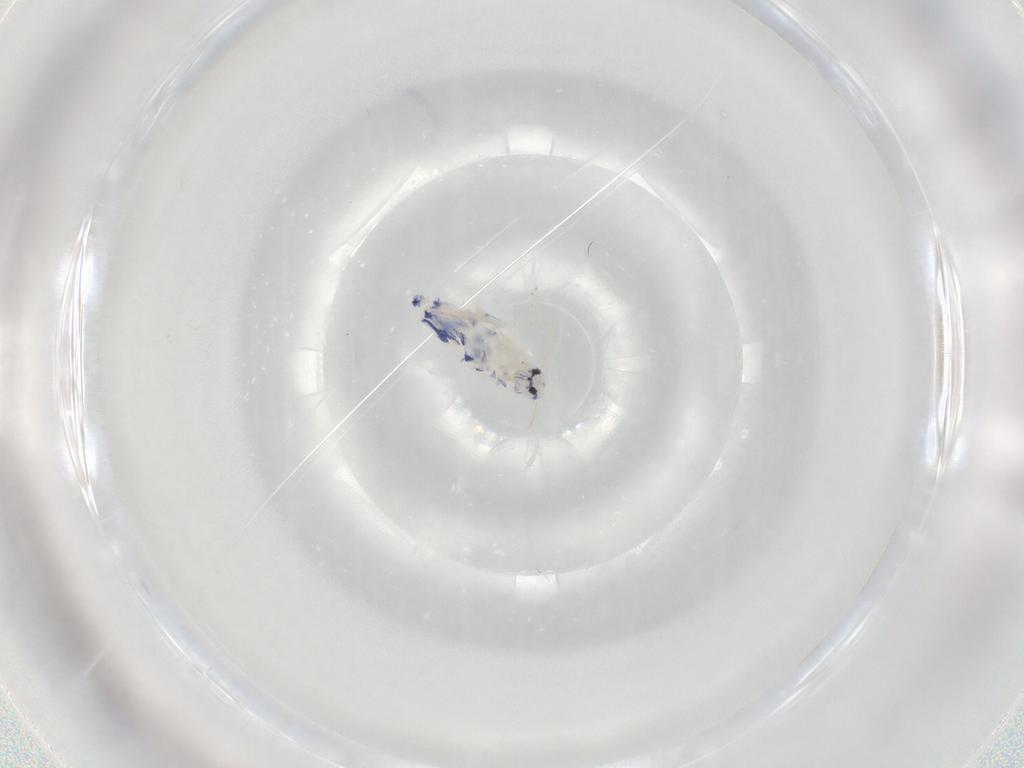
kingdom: Animalia
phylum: Arthropoda
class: Collembola
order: Entomobryomorpha
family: Entomobryidae
